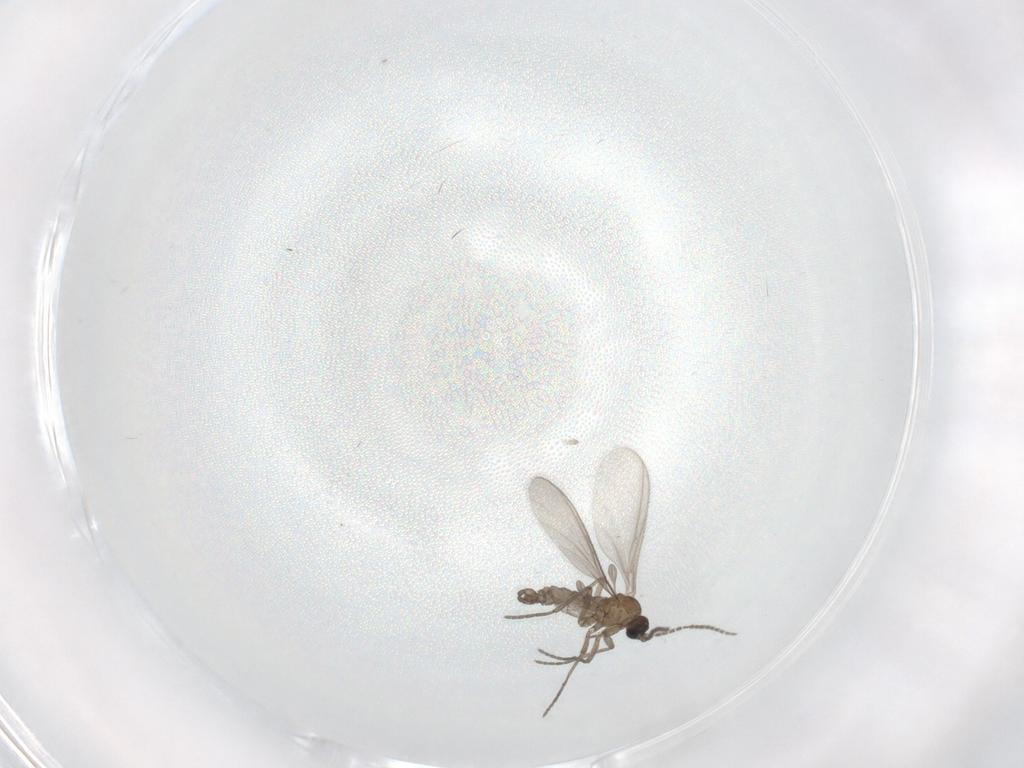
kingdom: Animalia
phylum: Arthropoda
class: Insecta
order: Diptera
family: Sciaridae
